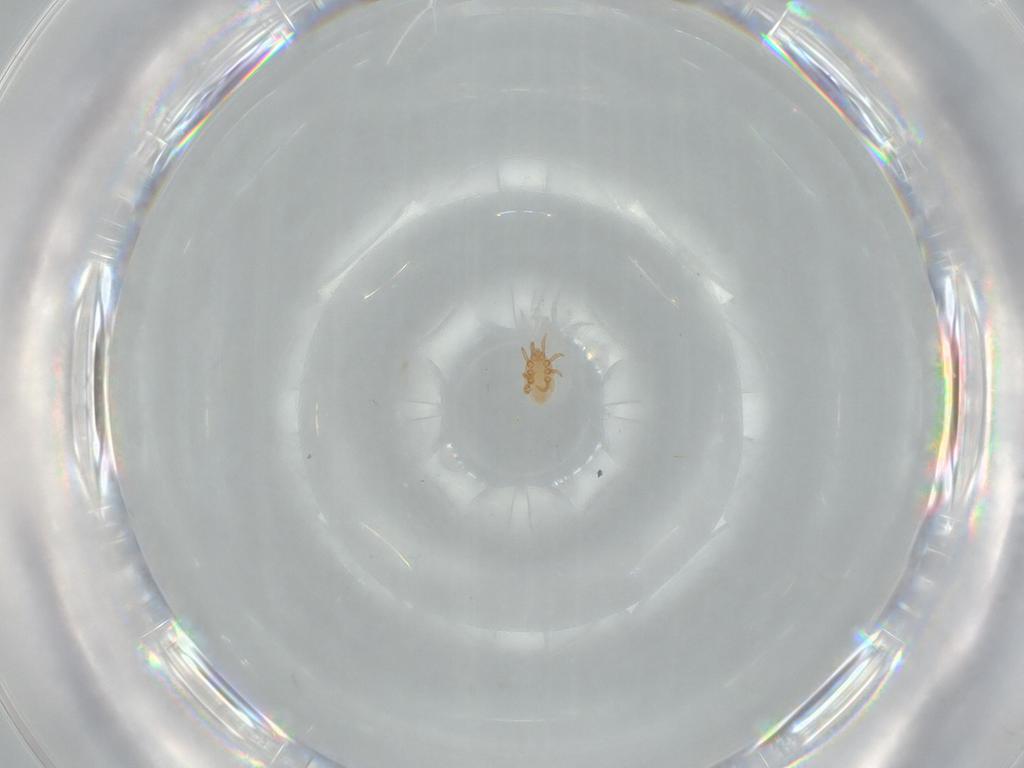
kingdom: Animalia
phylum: Arthropoda
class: Arachnida
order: Mesostigmata
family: Dinychidae
